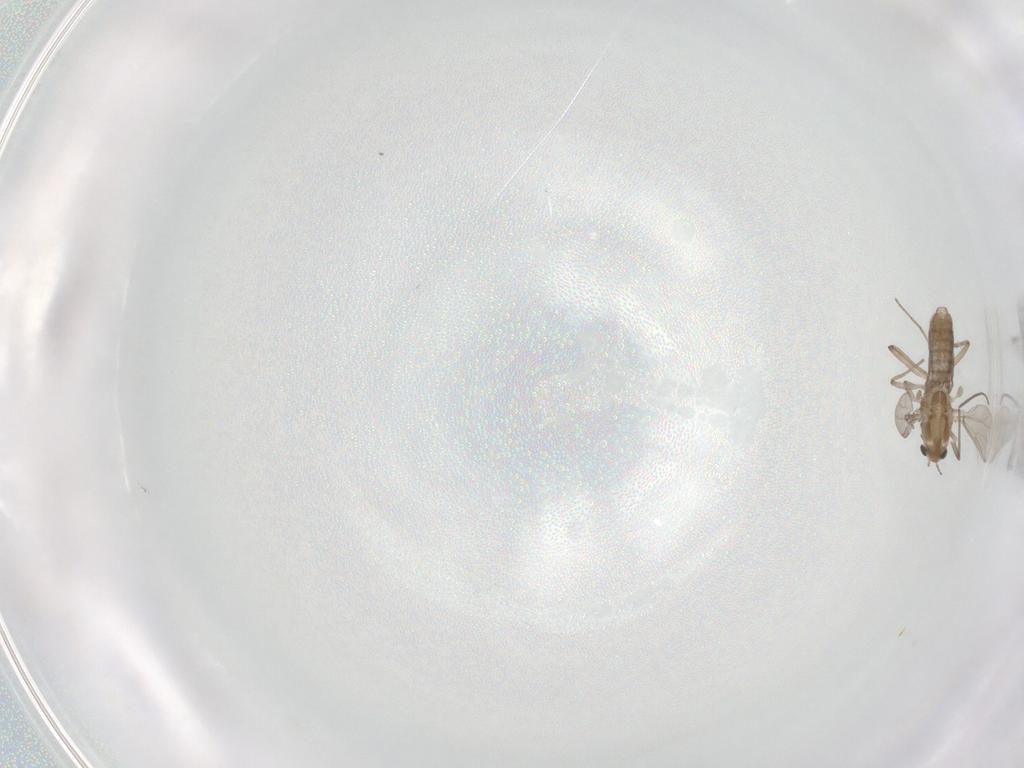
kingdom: Animalia
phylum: Arthropoda
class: Insecta
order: Diptera
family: Chironomidae
